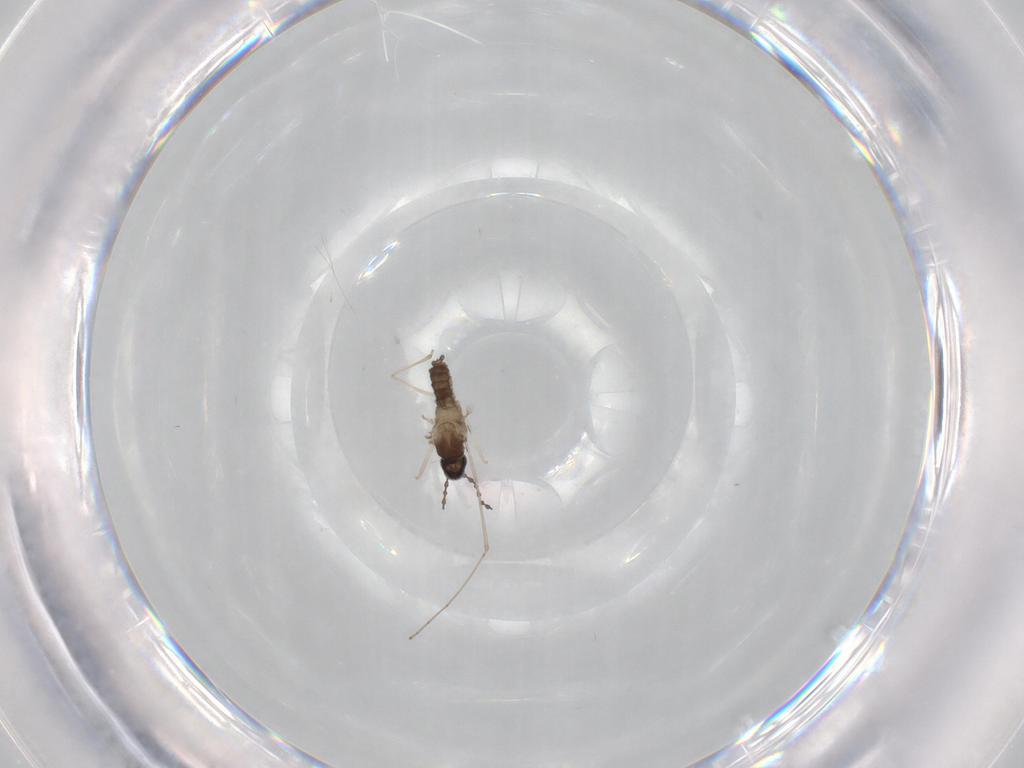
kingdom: Animalia
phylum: Arthropoda
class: Insecta
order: Diptera
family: Cecidomyiidae
